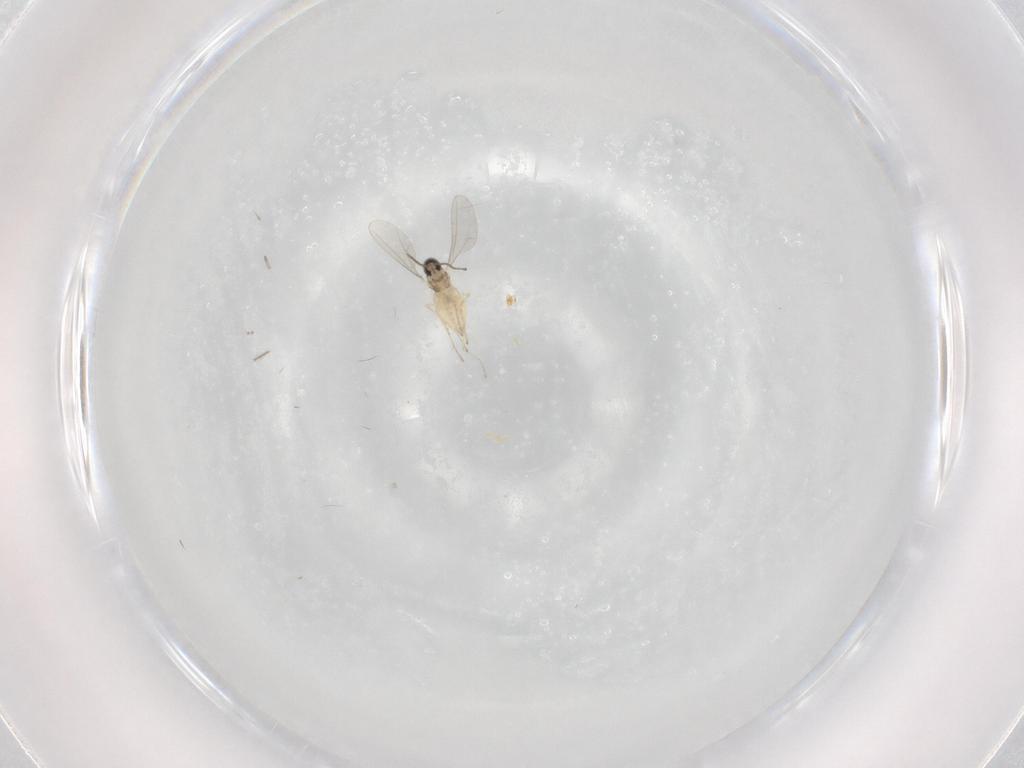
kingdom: Animalia
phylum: Arthropoda
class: Insecta
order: Diptera
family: Cecidomyiidae
